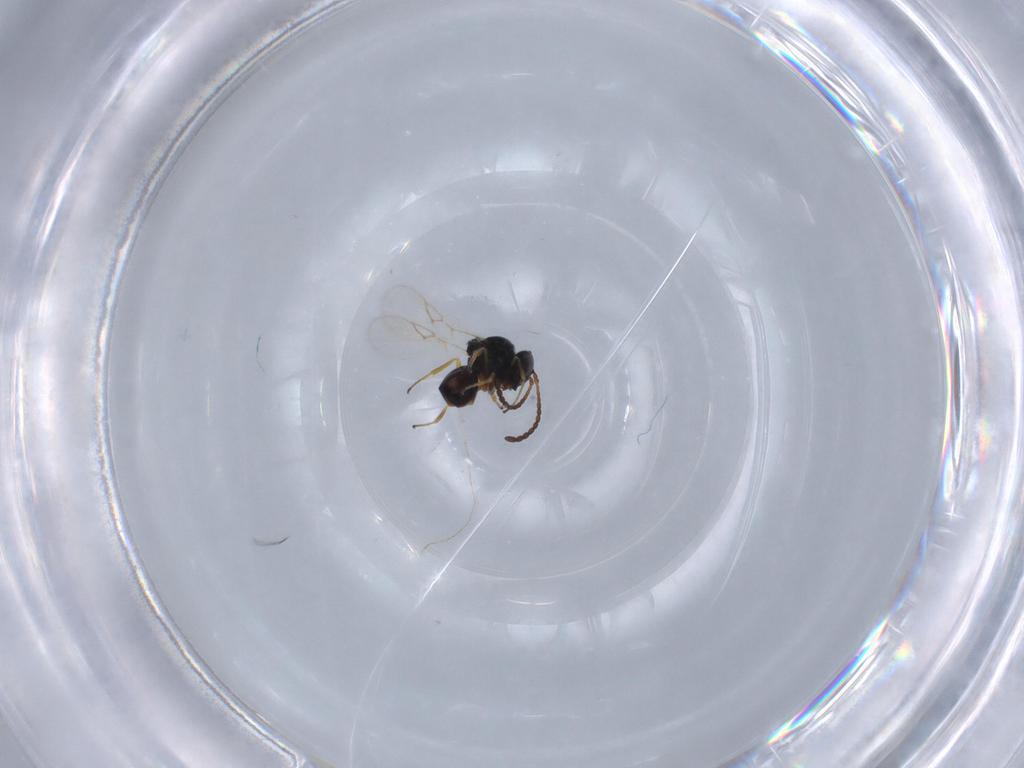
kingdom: Animalia
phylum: Arthropoda
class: Insecta
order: Hymenoptera
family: Figitidae
